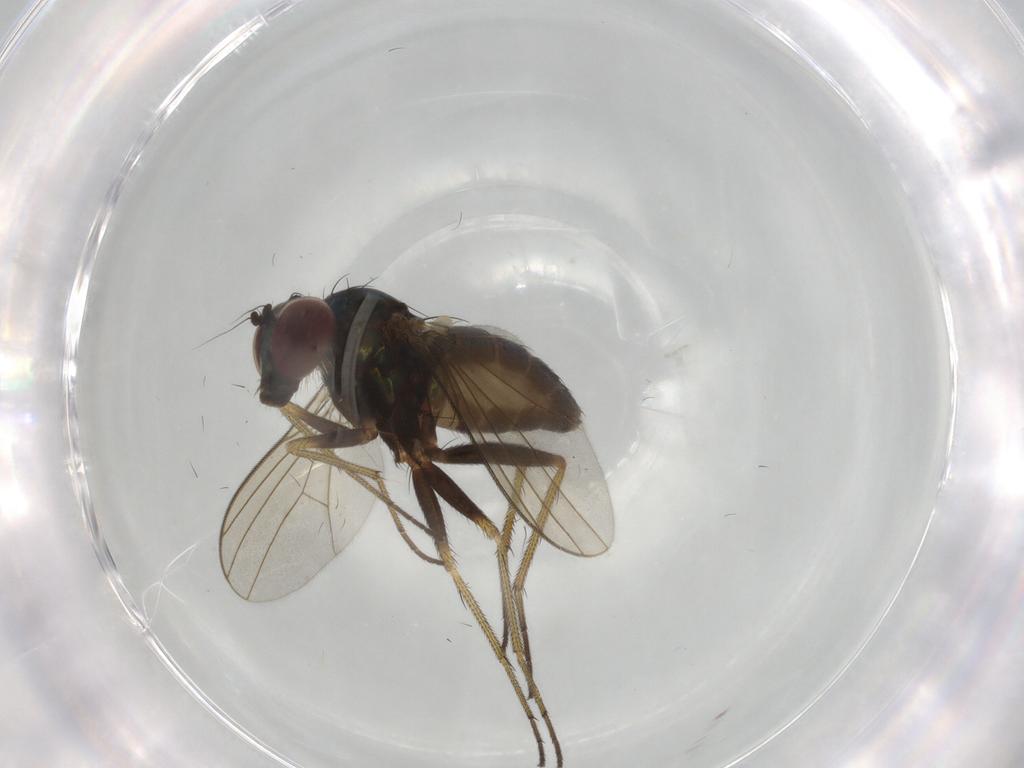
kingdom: Animalia
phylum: Arthropoda
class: Insecta
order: Diptera
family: Dolichopodidae
